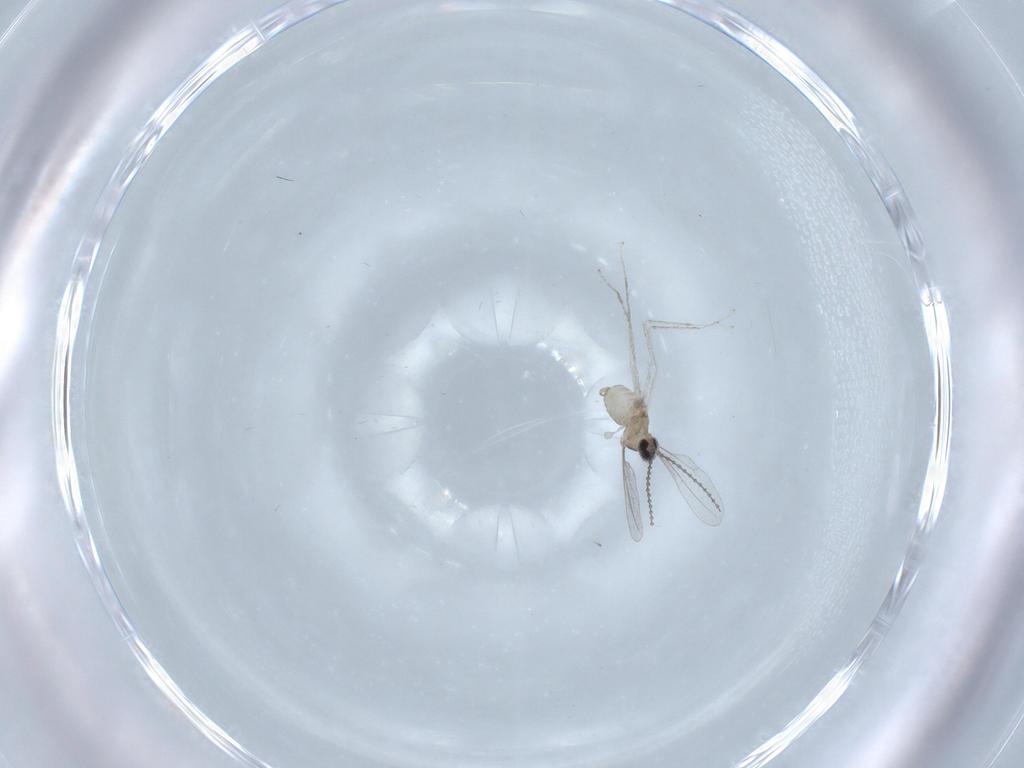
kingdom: Animalia
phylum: Arthropoda
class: Insecta
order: Diptera
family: Cecidomyiidae
